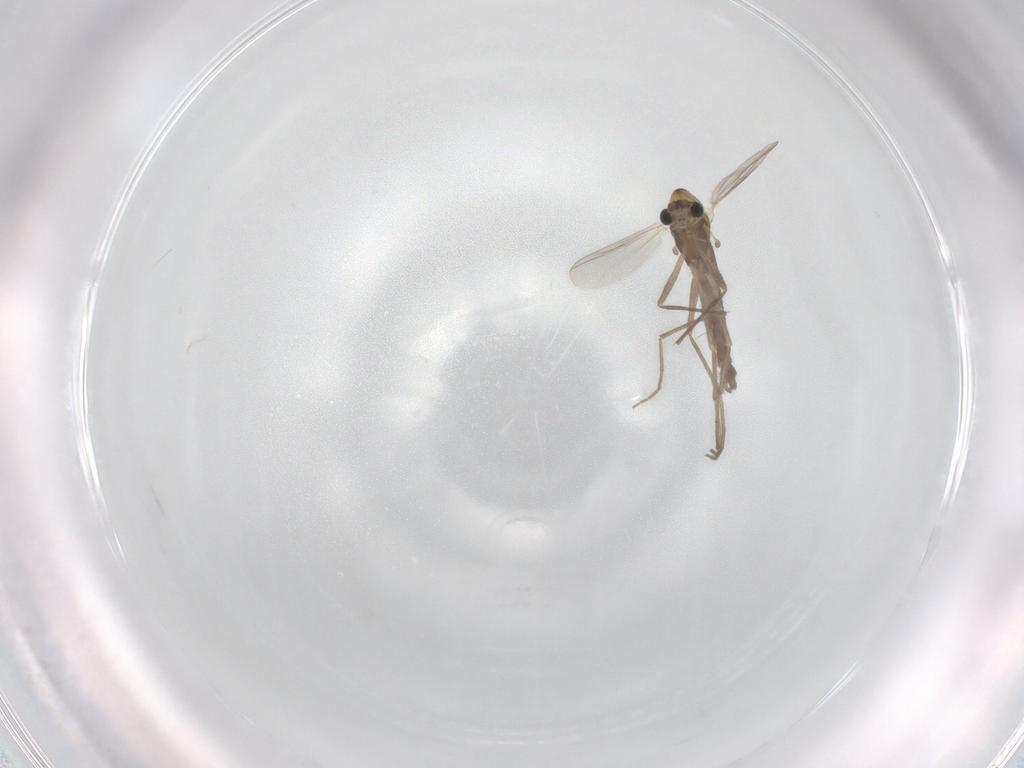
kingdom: Animalia
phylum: Arthropoda
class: Insecta
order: Diptera
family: Chironomidae
